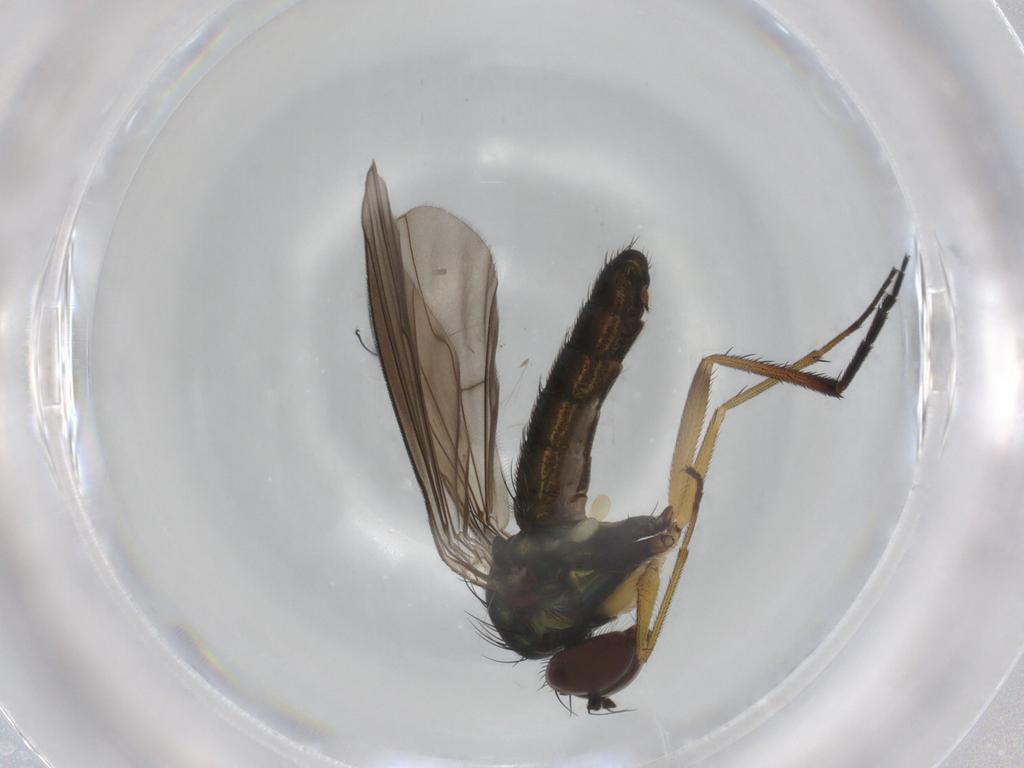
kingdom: Animalia
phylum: Arthropoda
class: Insecta
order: Diptera
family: Dolichopodidae
